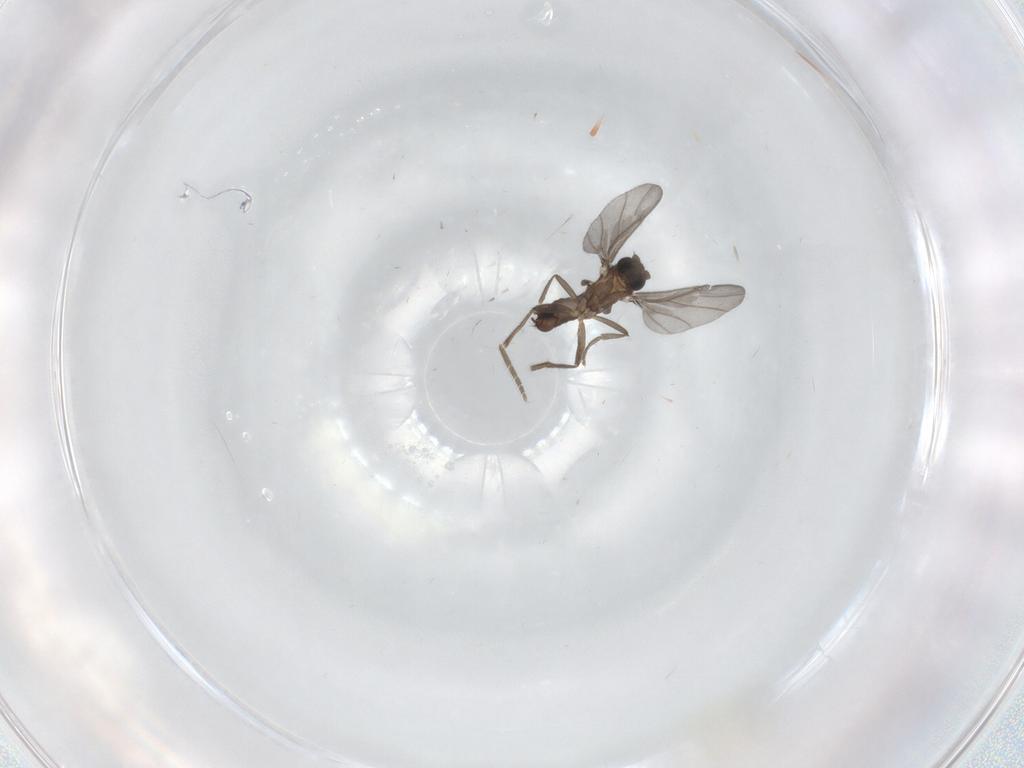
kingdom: Animalia
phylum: Arthropoda
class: Insecta
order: Diptera
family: Phoridae
